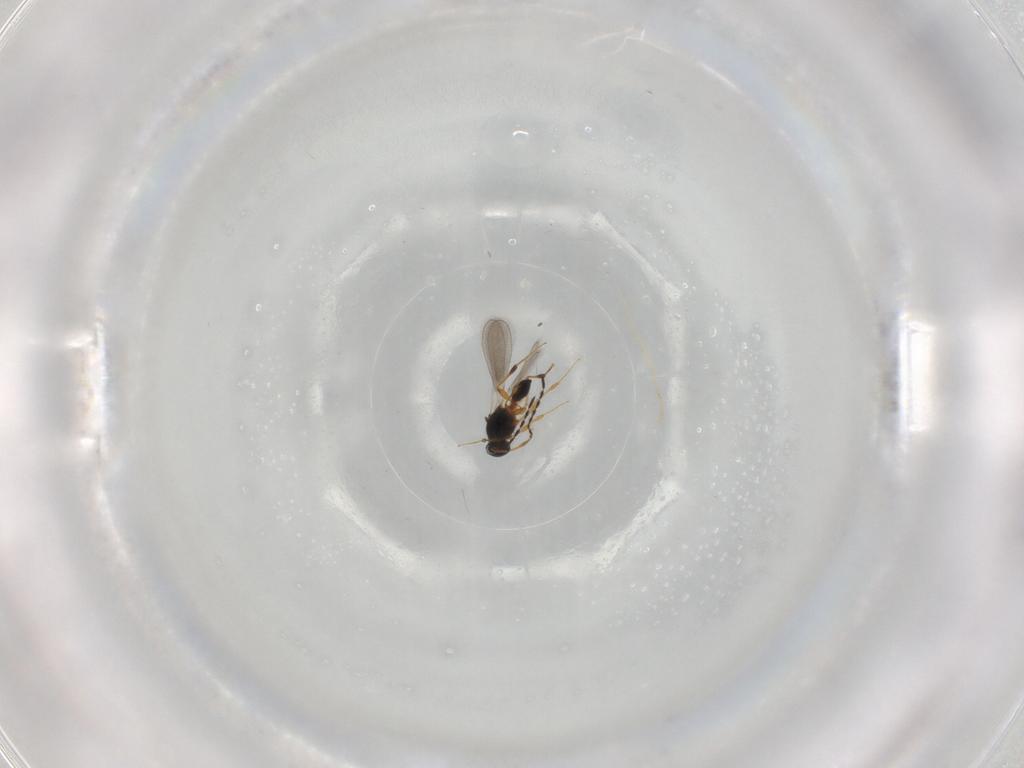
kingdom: Animalia
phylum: Arthropoda
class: Insecta
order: Hymenoptera
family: Platygastridae
